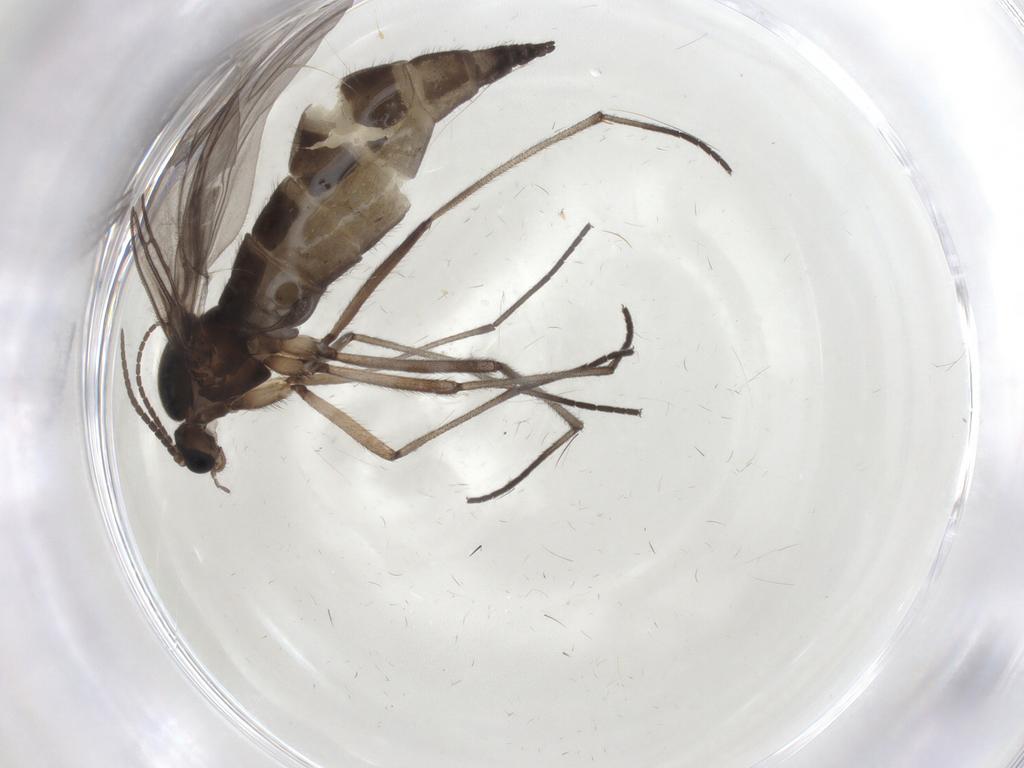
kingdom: Animalia
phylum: Arthropoda
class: Insecta
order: Diptera
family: Sciaridae
